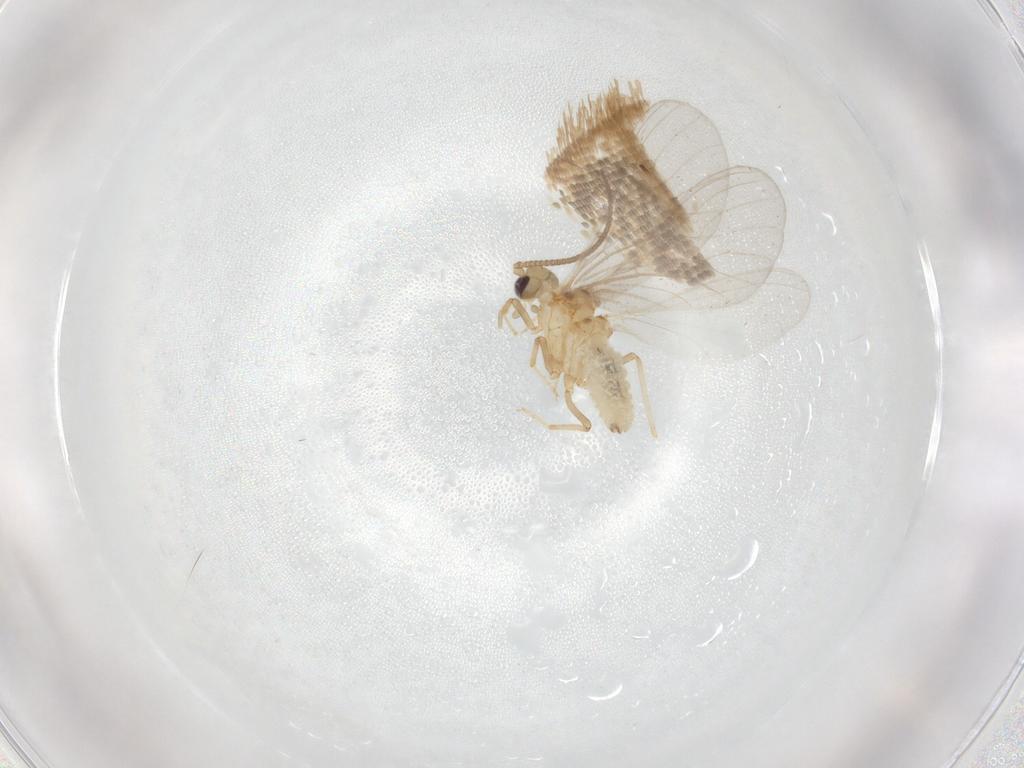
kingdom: Animalia
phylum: Arthropoda
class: Insecta
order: Neuroptera
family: Coniopterygidae
